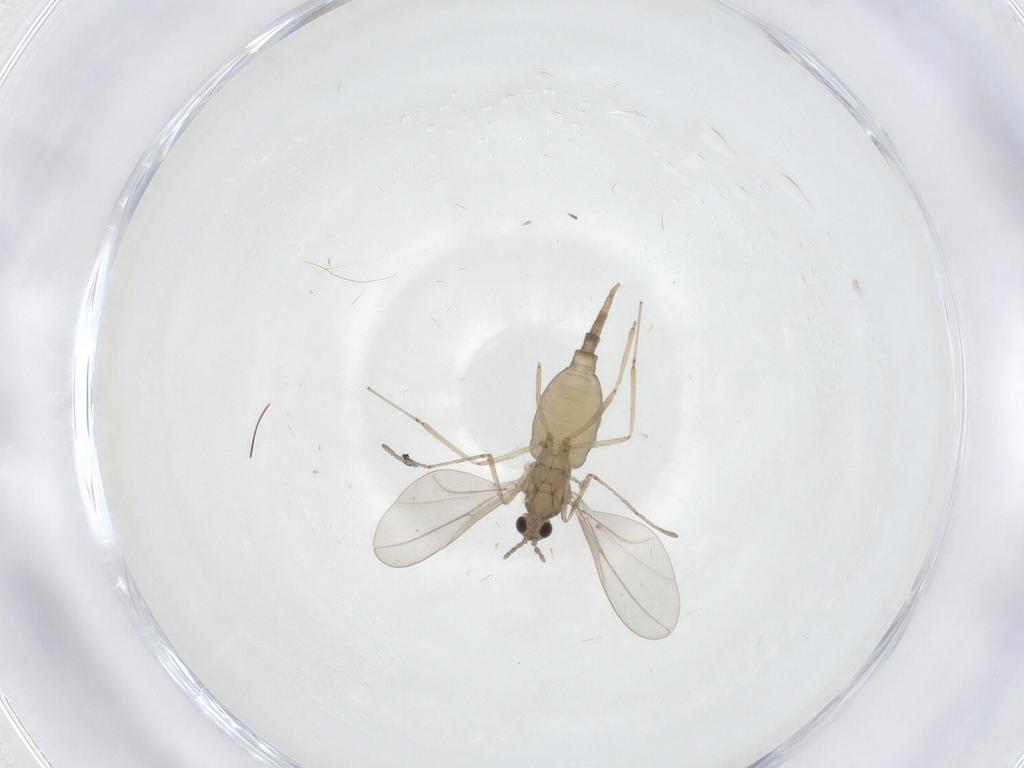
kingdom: Animalia
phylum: Arthropoda
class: Insecta
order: Diptera
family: Cecidomyiidae
